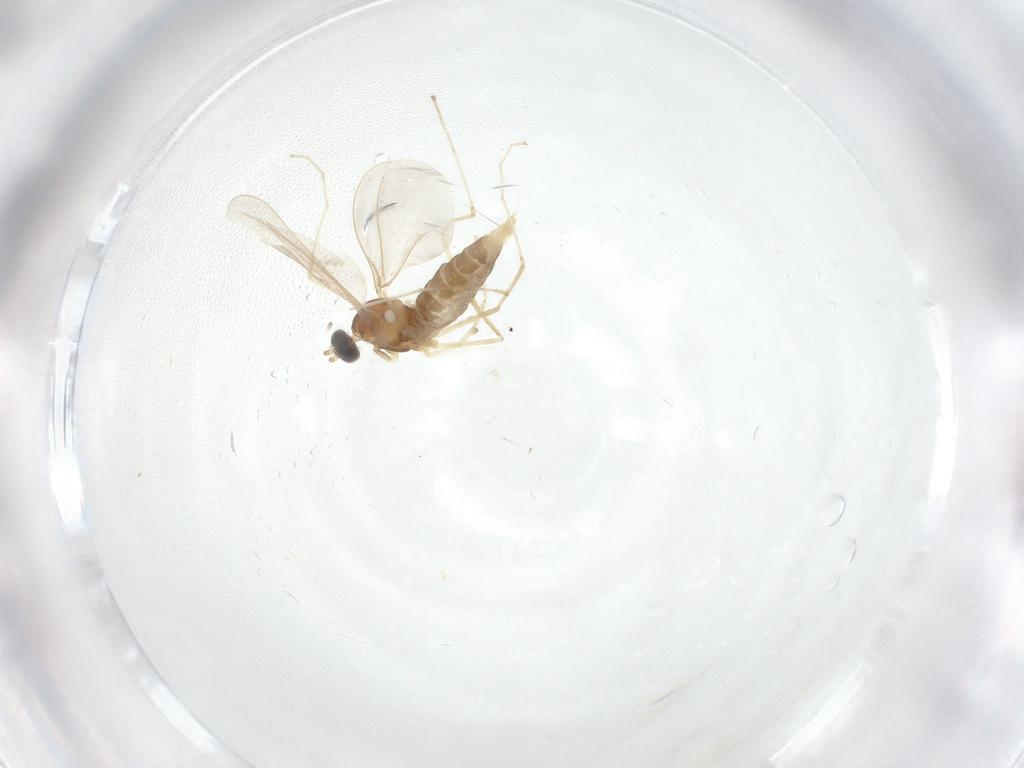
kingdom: Animalia
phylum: Arthropoda
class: Insecta
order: Diptera
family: Cecidomyiidae
